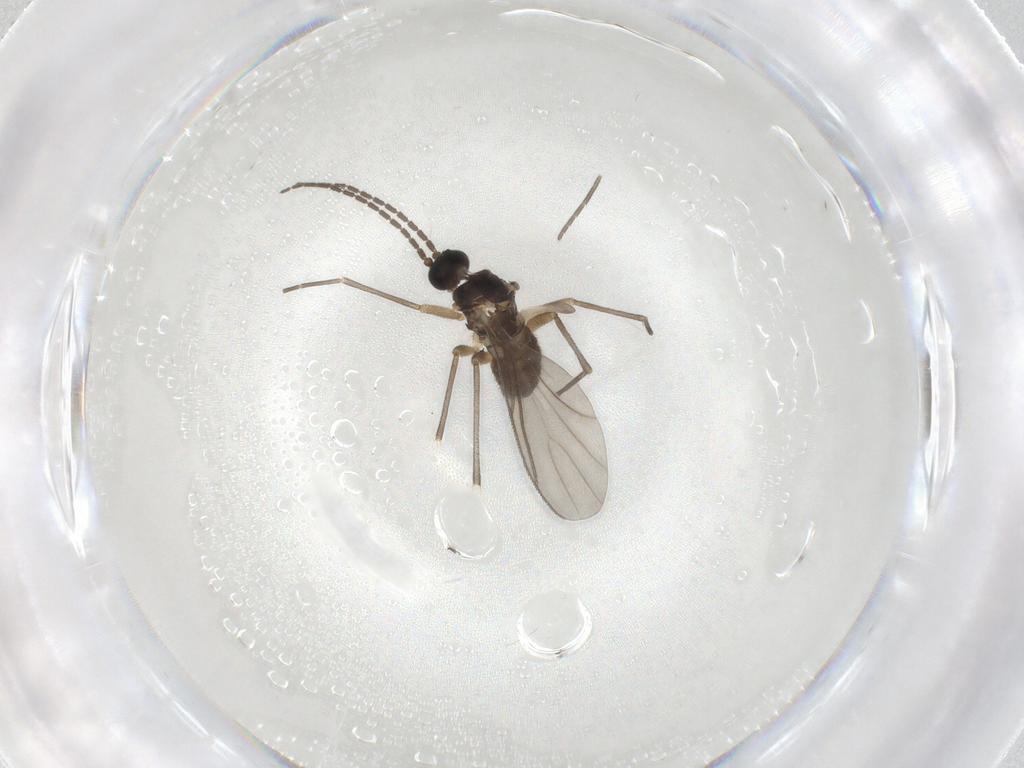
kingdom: Animalia
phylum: Arthropoda
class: Insecta
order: Diptera
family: Sciaridae
